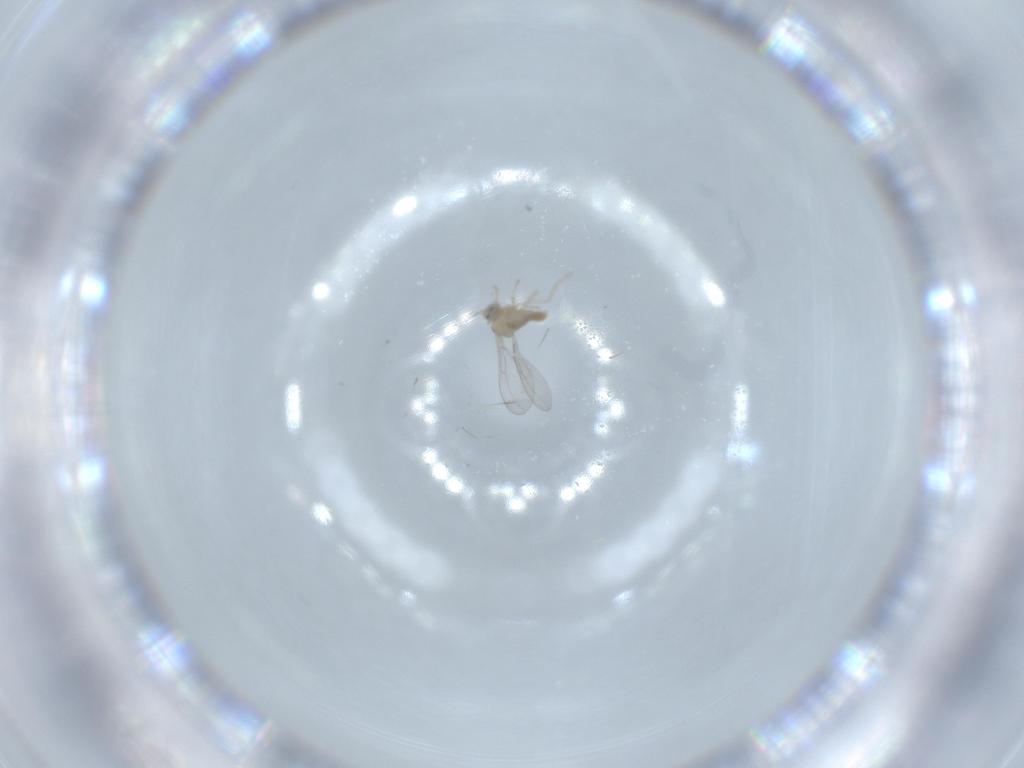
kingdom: Animalia
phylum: Arthropoda
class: Insecta
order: Diptera
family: Cecidomyiidae
